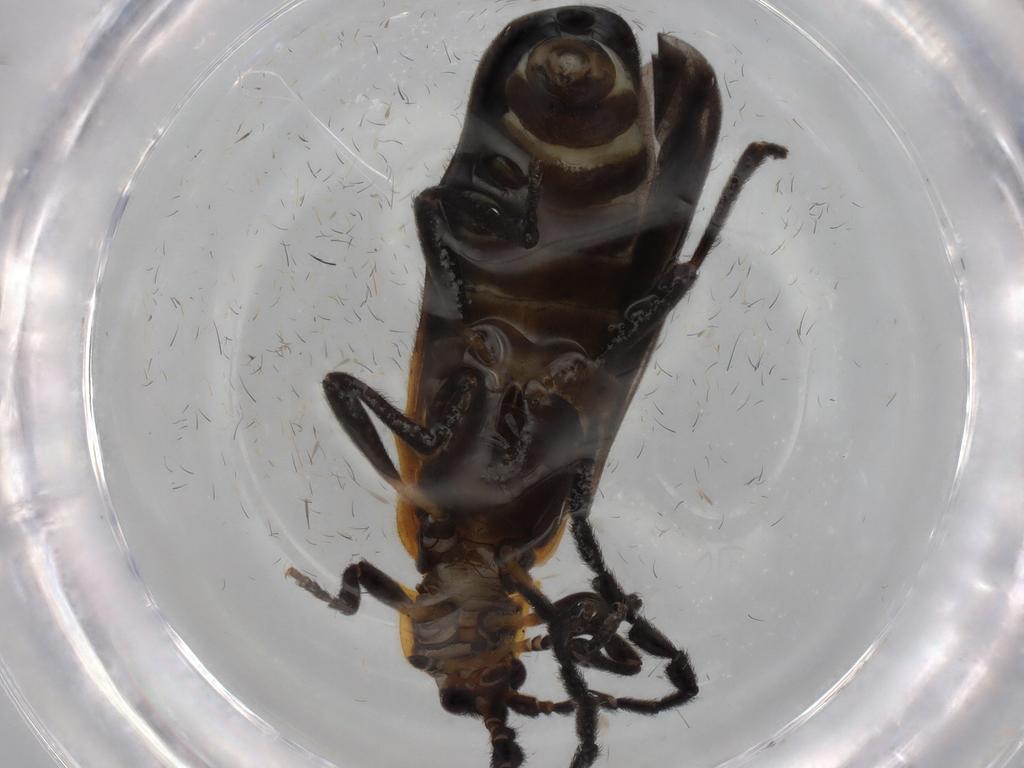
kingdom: Animalia
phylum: Arthropoda
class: Insecta
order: Coleoptera
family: Lycidae
